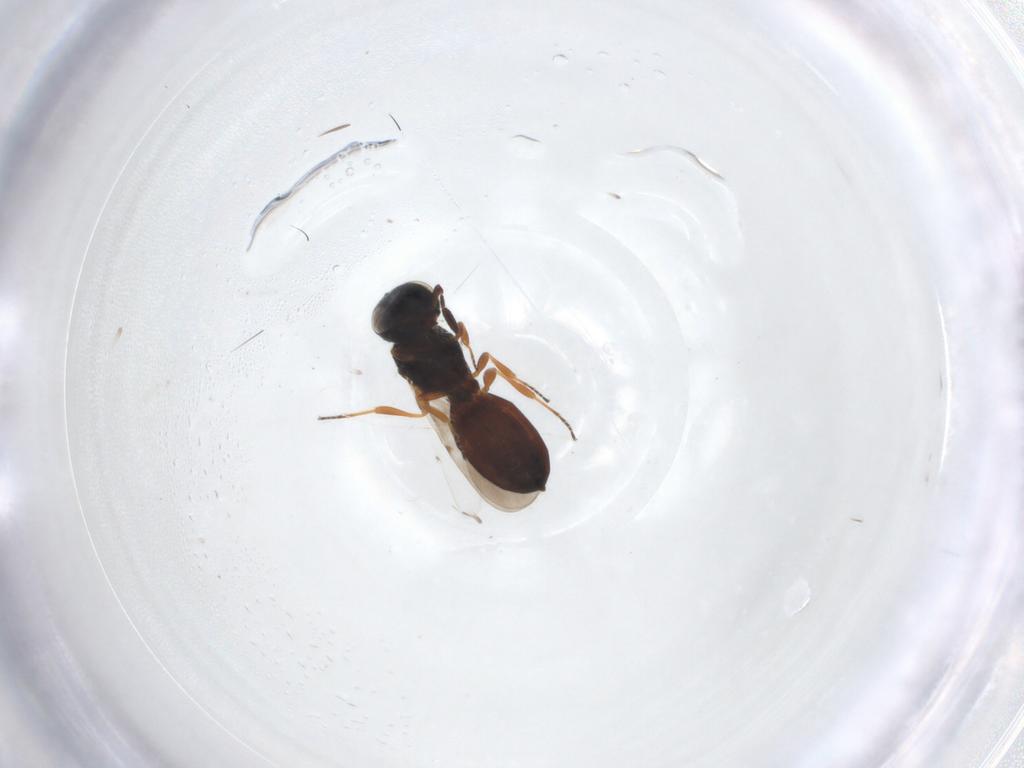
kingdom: Animalia
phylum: Arthropoda
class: Insecta
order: Hymenoptera
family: Scelionidae
